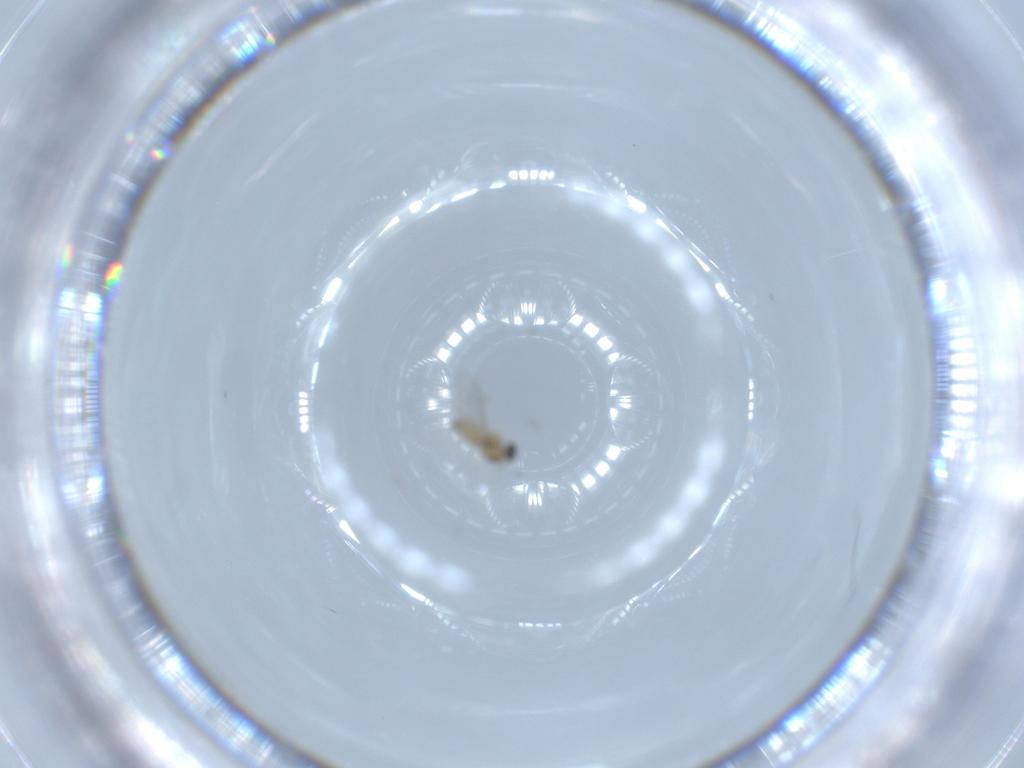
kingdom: Animalia
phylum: Arthropoda
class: Insecta
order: Diptera
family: Cecidomyiidae
